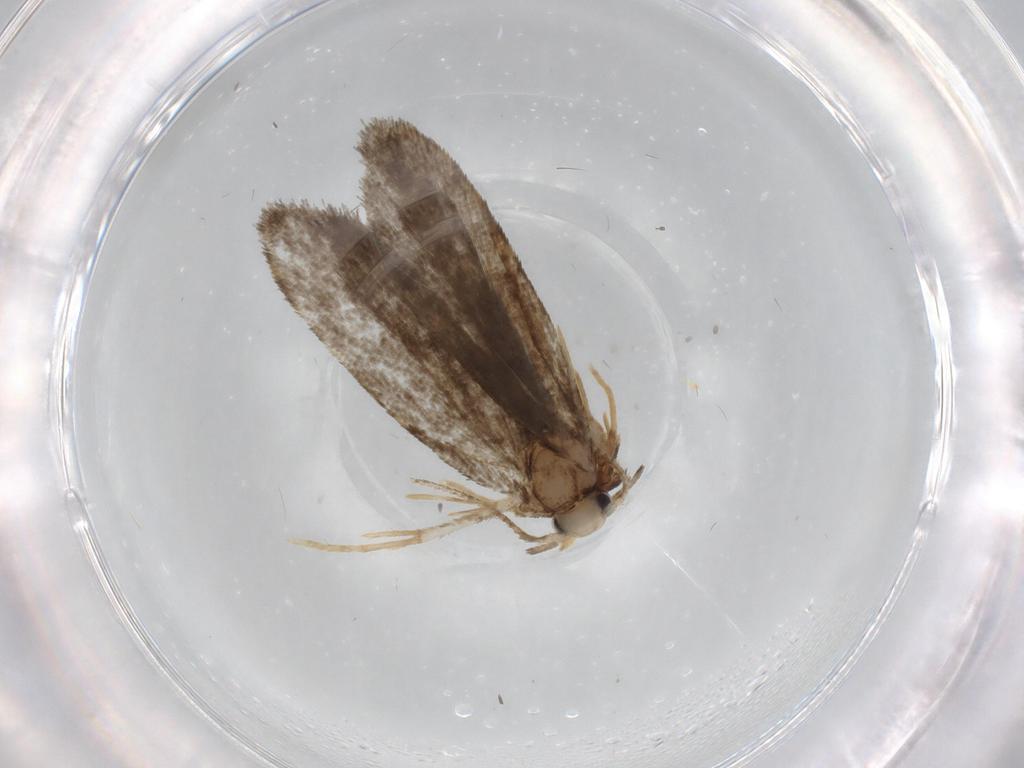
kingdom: Animalia
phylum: Arthropoda
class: Insecta
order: Lepidoptera
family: Psychidae
